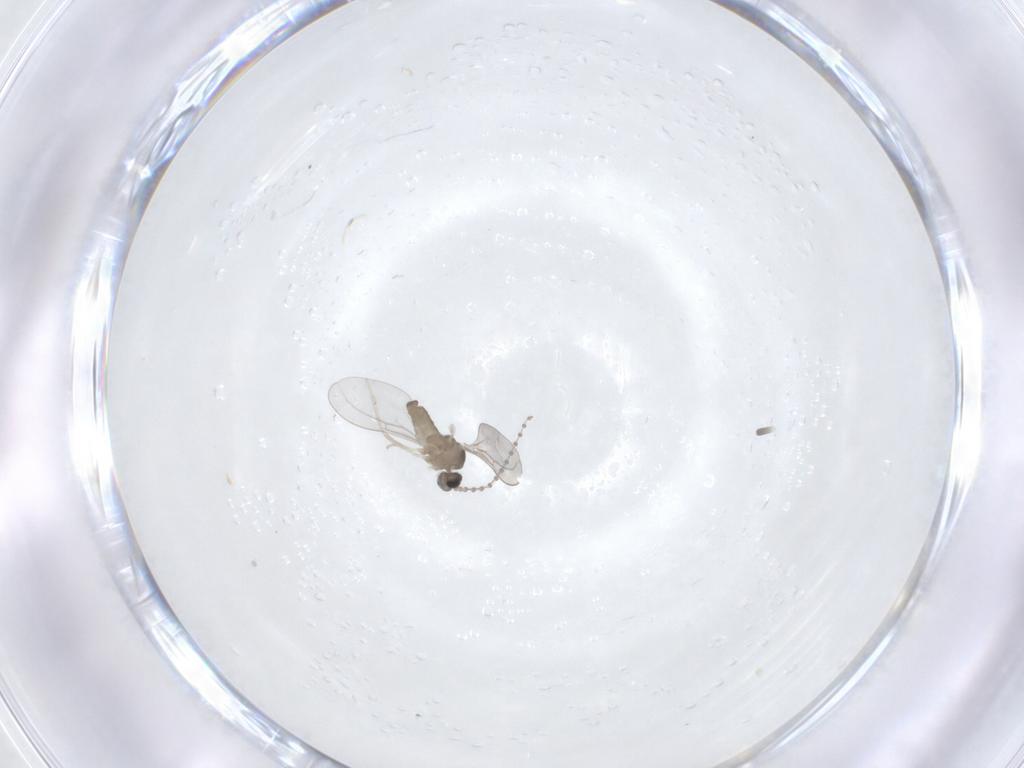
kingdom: Animalia
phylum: Arthropoda
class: Insecta
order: Diptera
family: Cecidomyiidae
